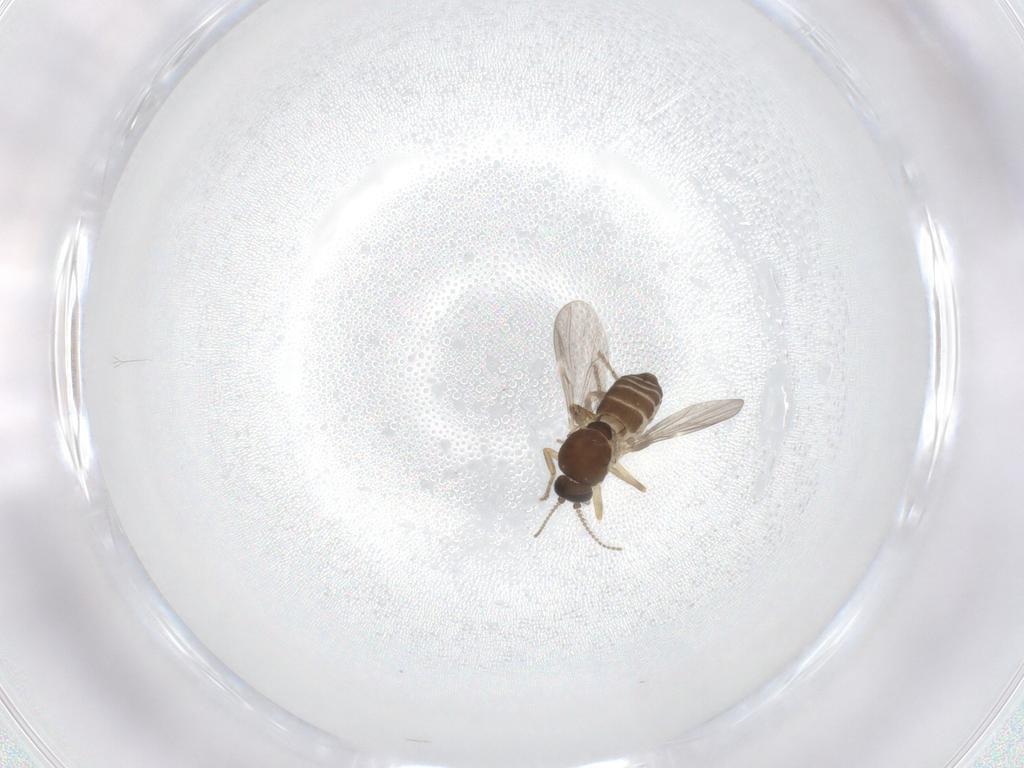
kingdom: Animalia
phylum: Arthropoda
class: Insecta
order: Diptera
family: Ceratopogonidae
